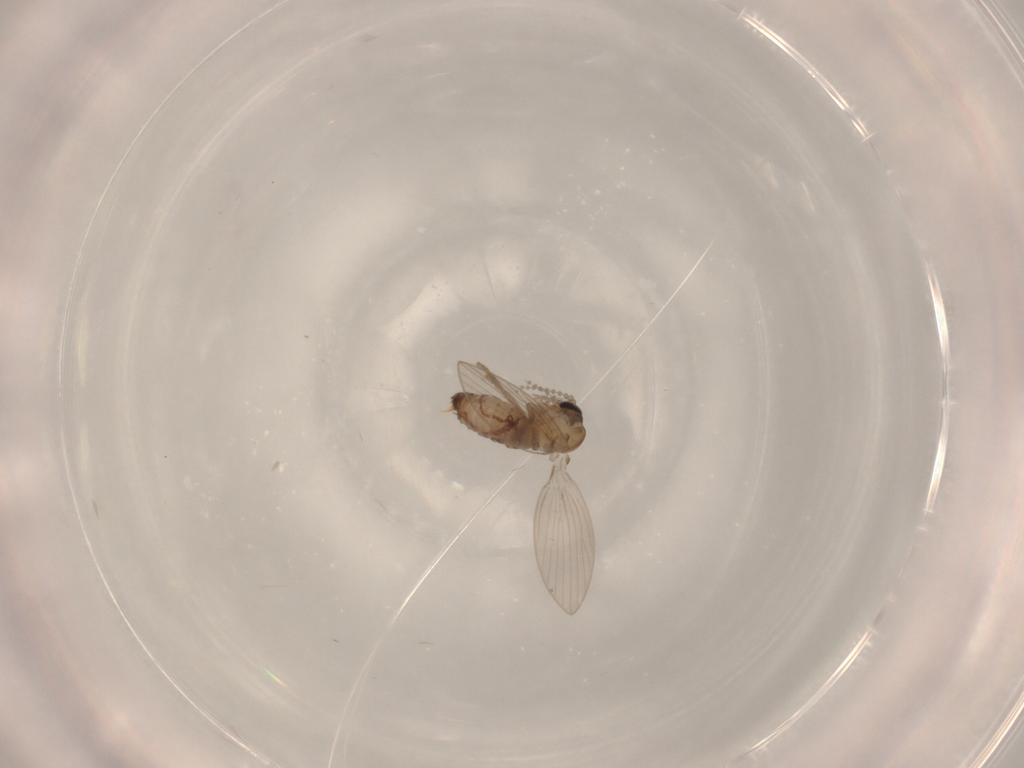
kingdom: Animalia
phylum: Arthropoda
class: Insecta
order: Diptera
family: Psychodidae
